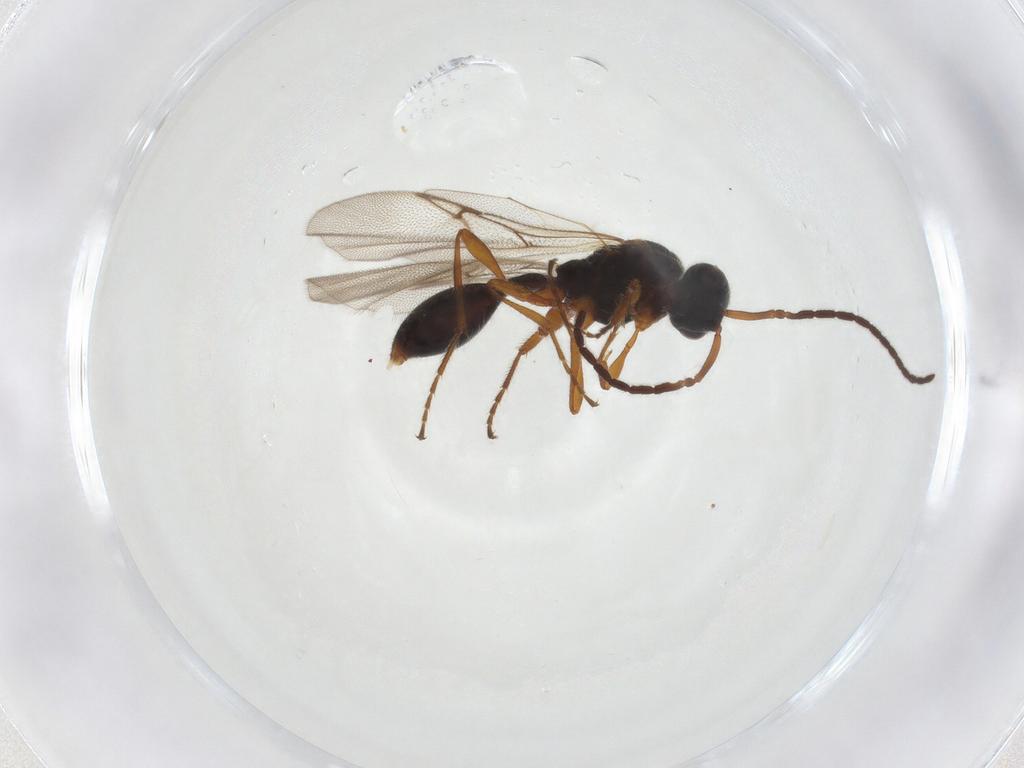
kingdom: Animalia
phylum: Arthropoda
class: Insecta
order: Hymenoptera
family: Diapriidae
